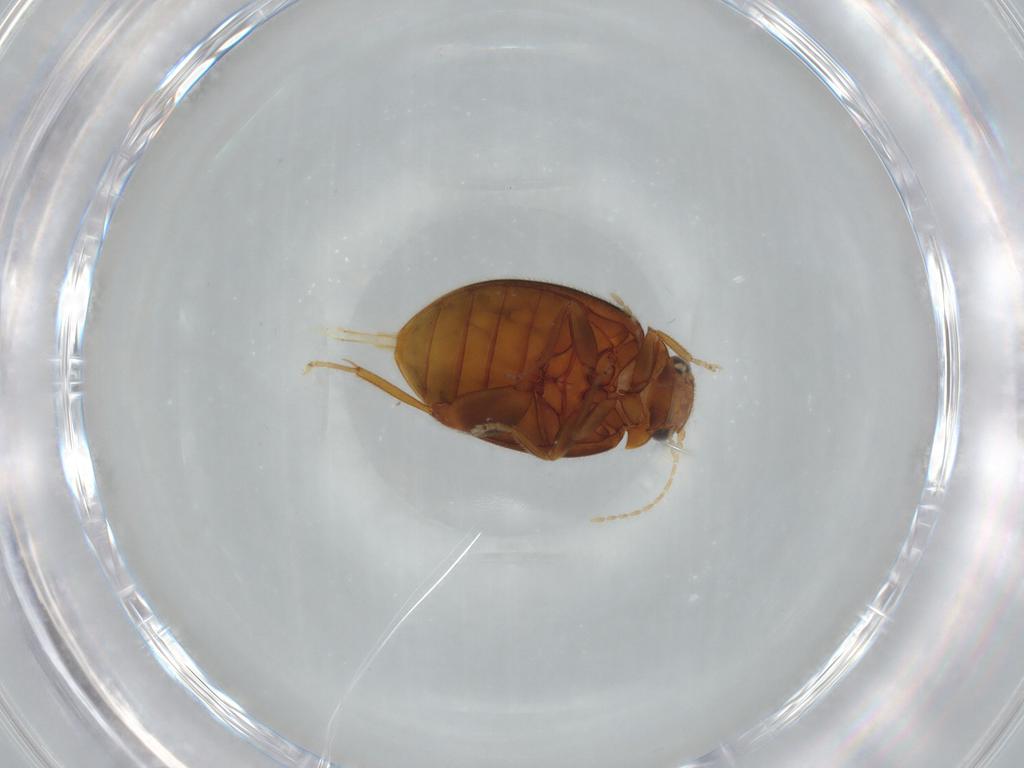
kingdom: Animalia
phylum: Arthropoda
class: Insecta
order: Coleoptera
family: Scirtidae
